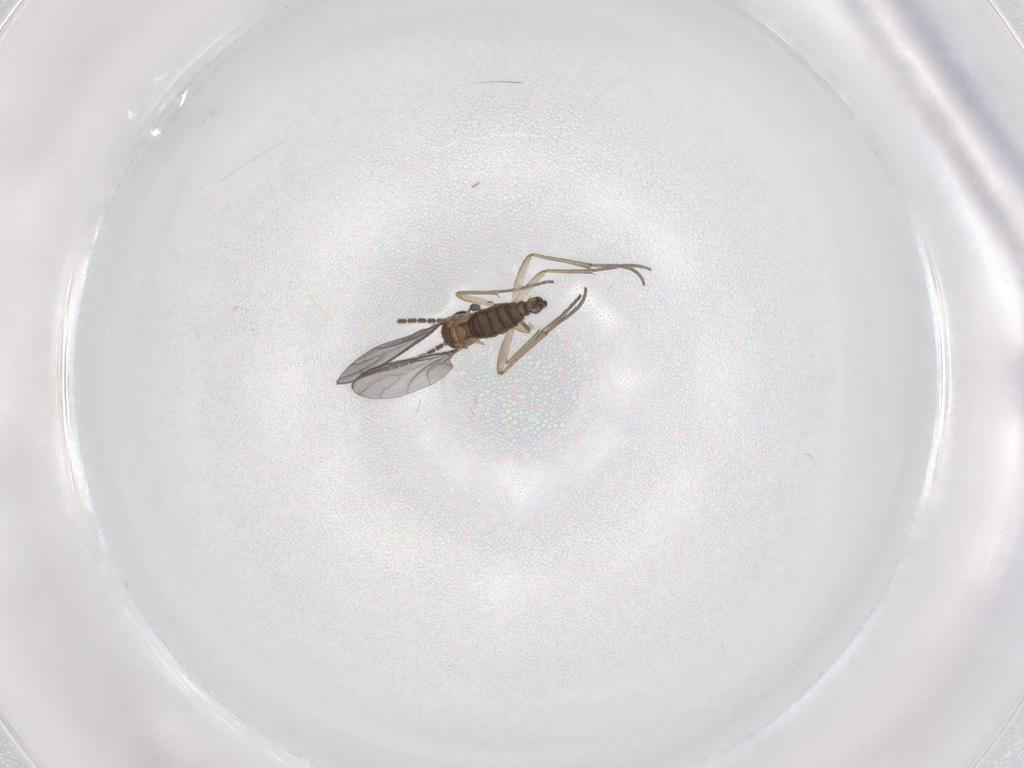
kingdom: Animalia
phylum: Arthropoda
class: Insecta
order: Diptera
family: Sciaridae
